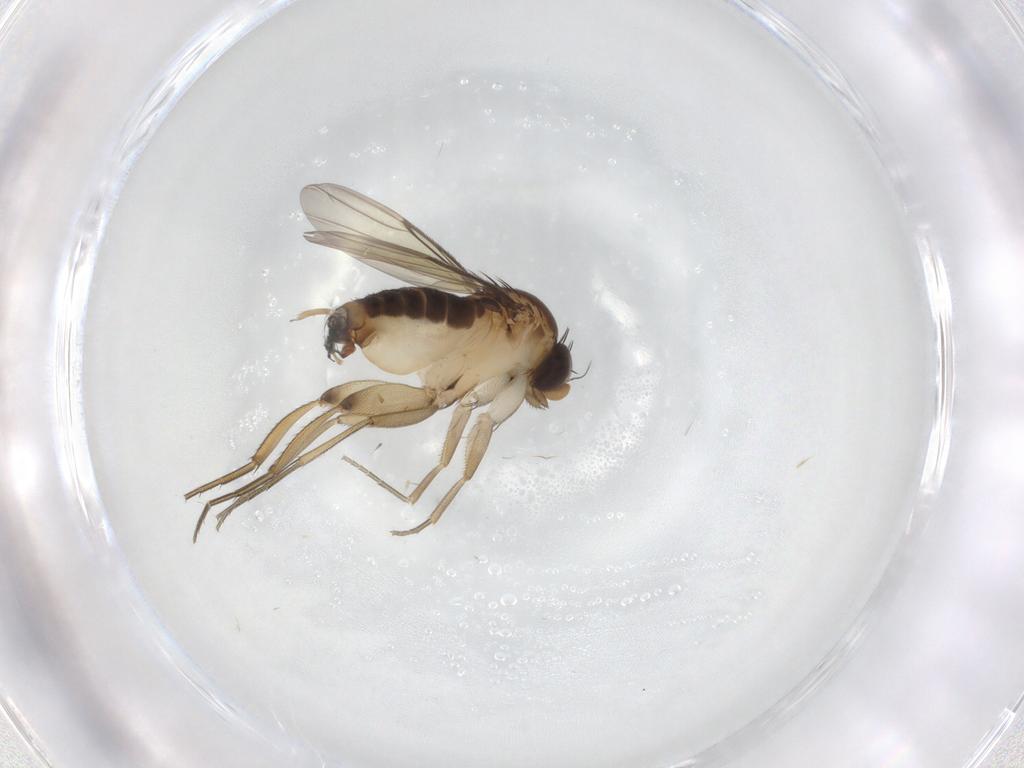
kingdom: Animalia
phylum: Arthropoda
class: Insecta
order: Diptera
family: Phoridae
